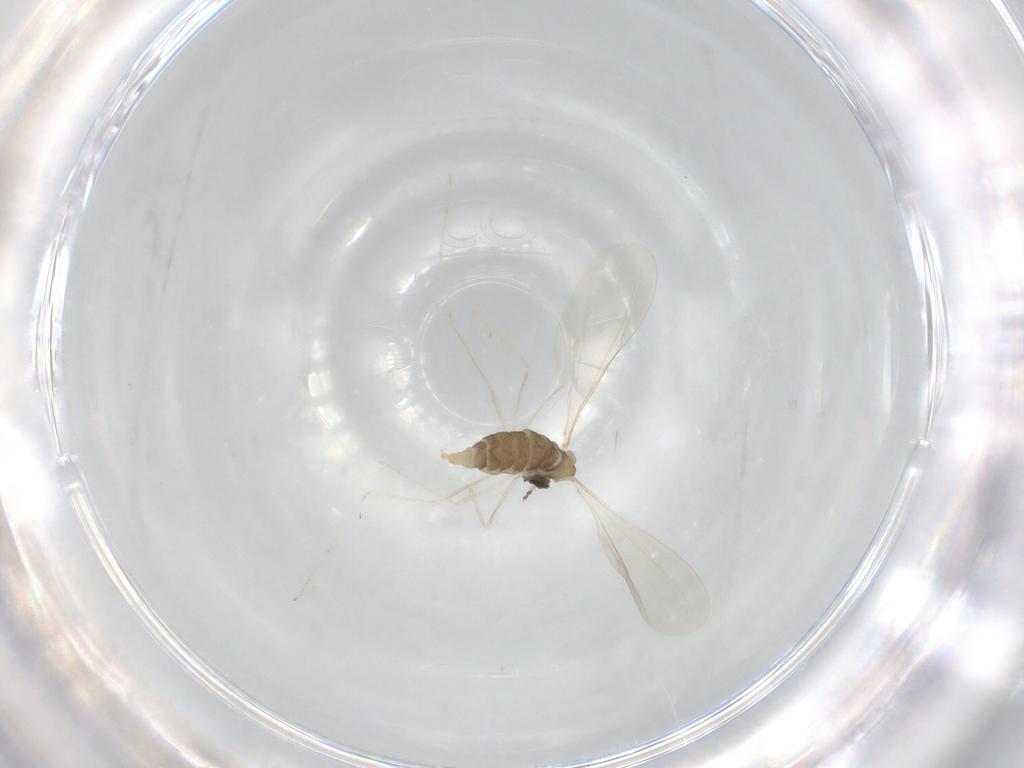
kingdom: Animalia
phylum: Arthropoda
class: Insecta
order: Diptera
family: Cecidomyiidae
